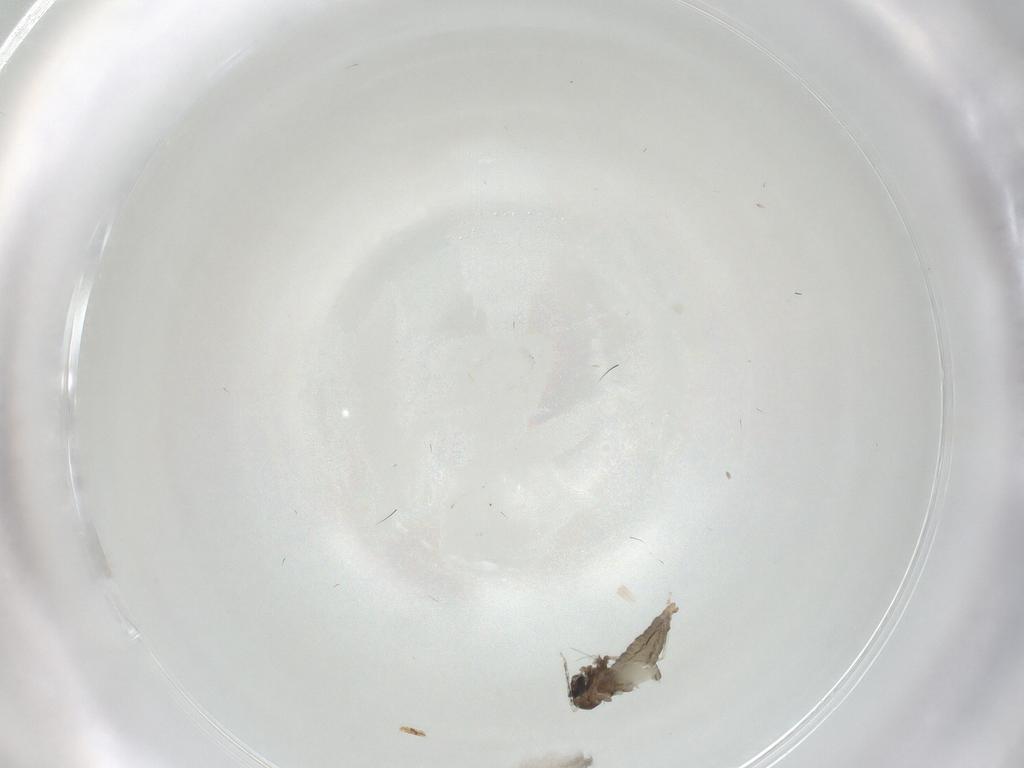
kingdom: Animalia
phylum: Arthropoda
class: Insecta
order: Diptera
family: Cecidomyiidae
